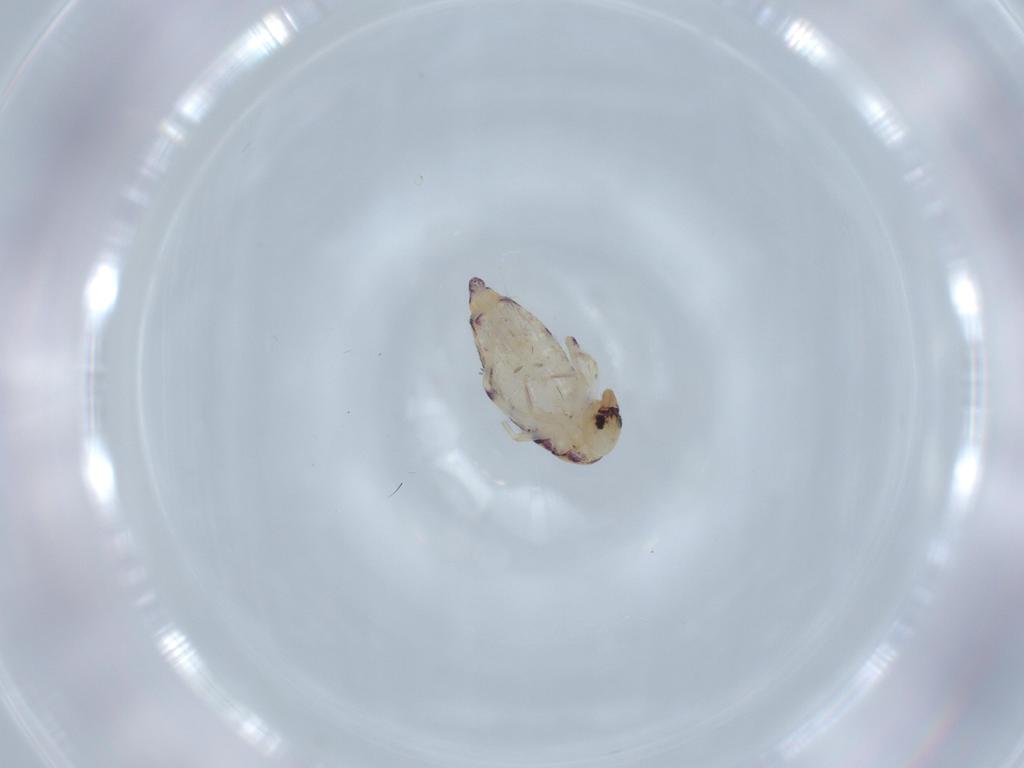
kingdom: Animalia
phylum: Arthropoda
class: Collembola
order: Entomobryomorpha
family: Entomobryidae
